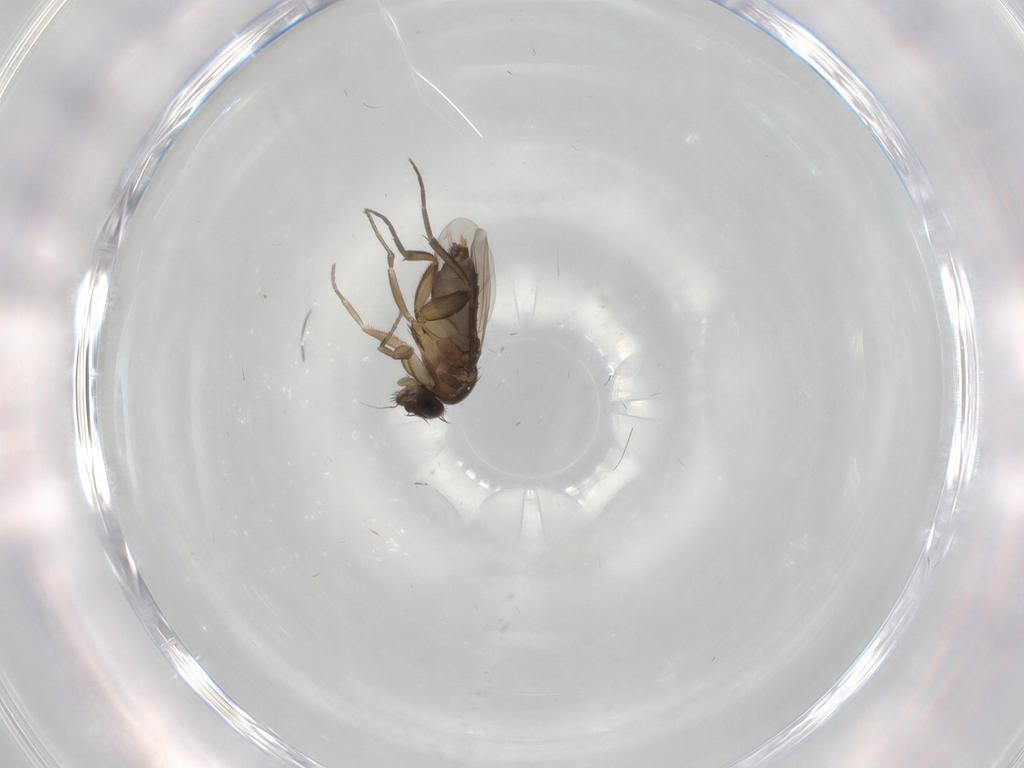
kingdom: Animalia
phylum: Arthropoda
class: Insecta
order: Diptera
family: Phoridae
